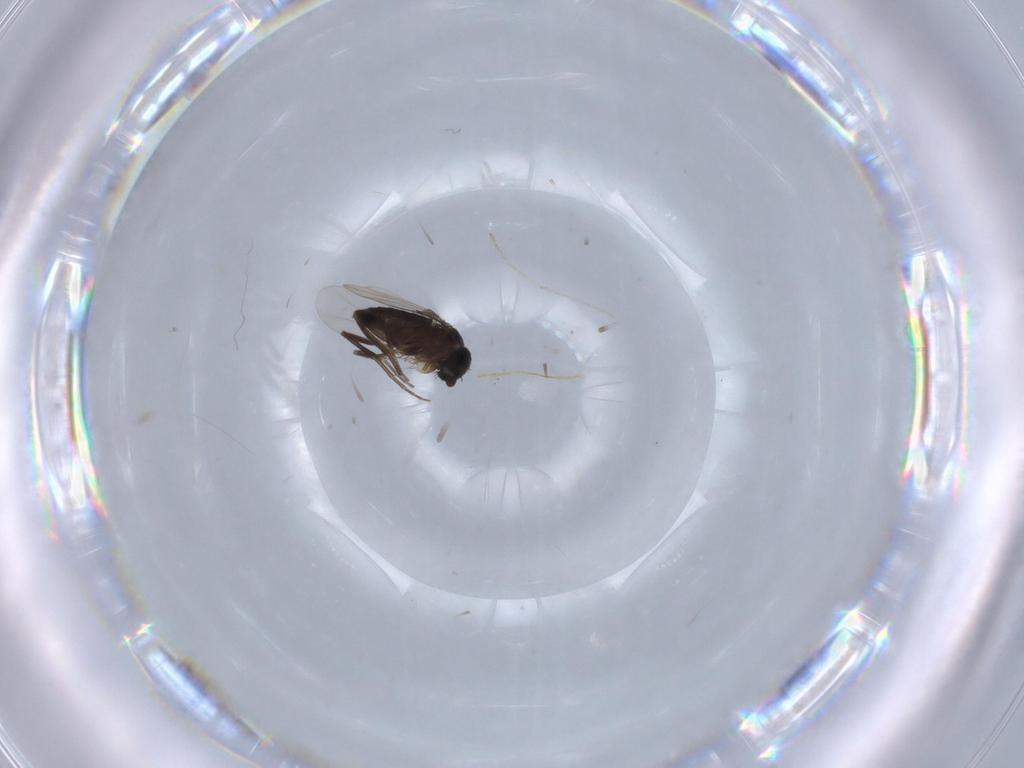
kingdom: Animalia
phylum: Arthropoda
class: Insecta
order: Diptera
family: Phoridae
